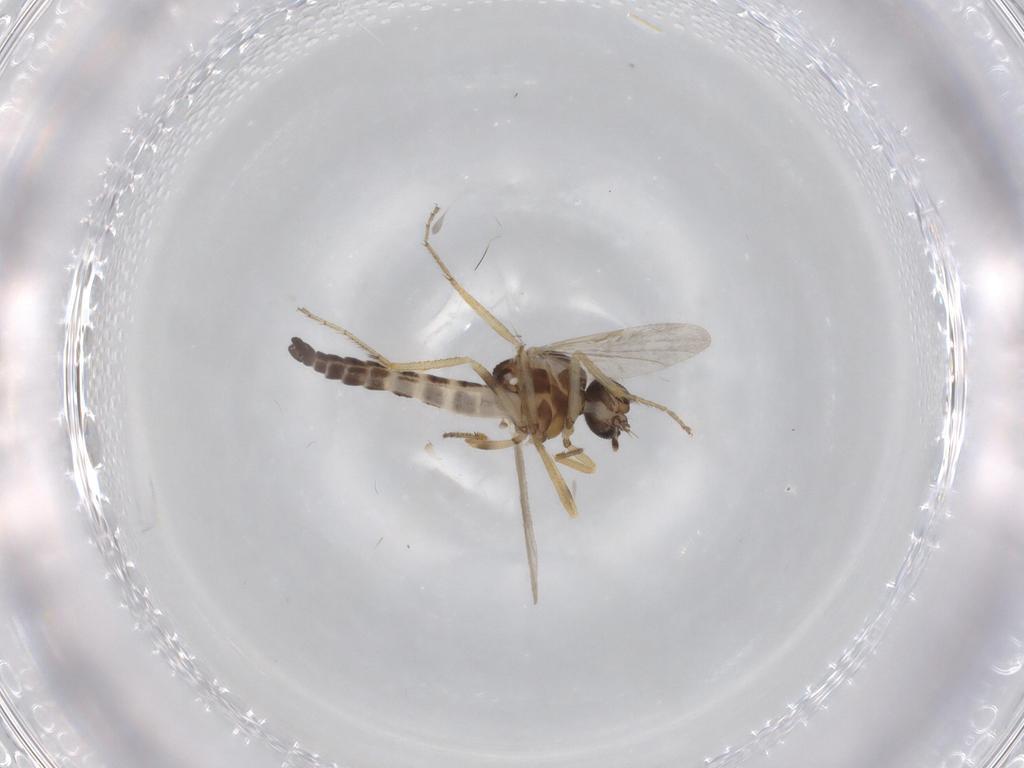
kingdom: Animalia
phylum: Arthropoda
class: Insecta
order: Diptera
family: Ceratopogonidae
